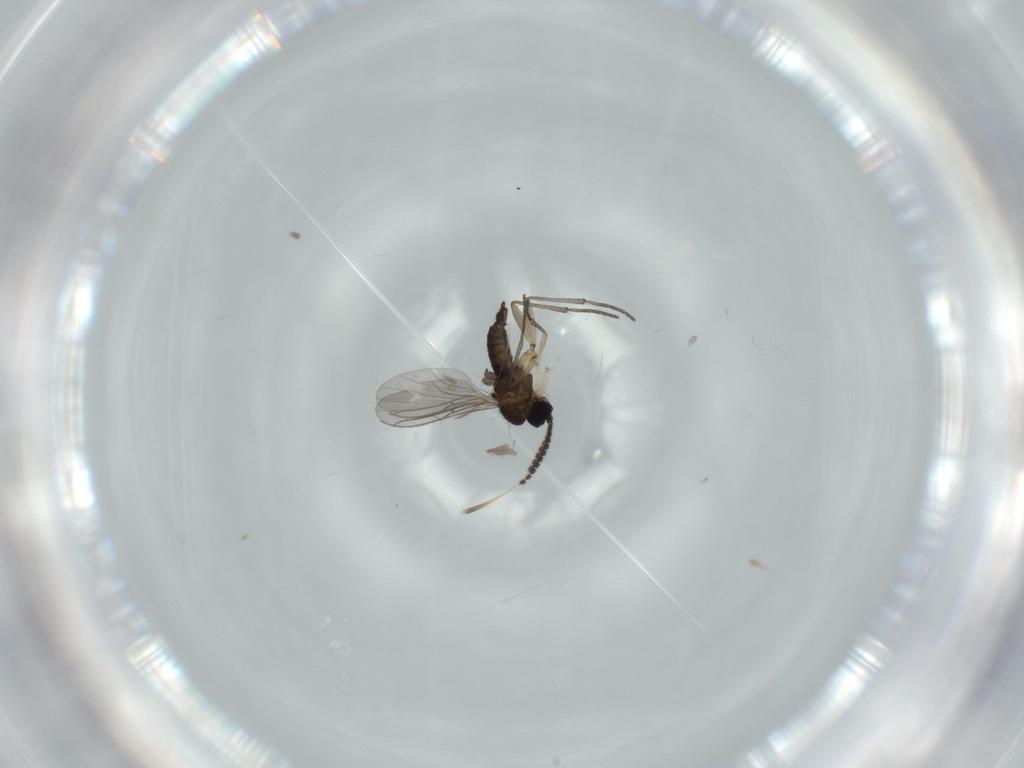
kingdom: Animalia
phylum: Arthropoda
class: Insecta
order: Diptera
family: Sciaridae
